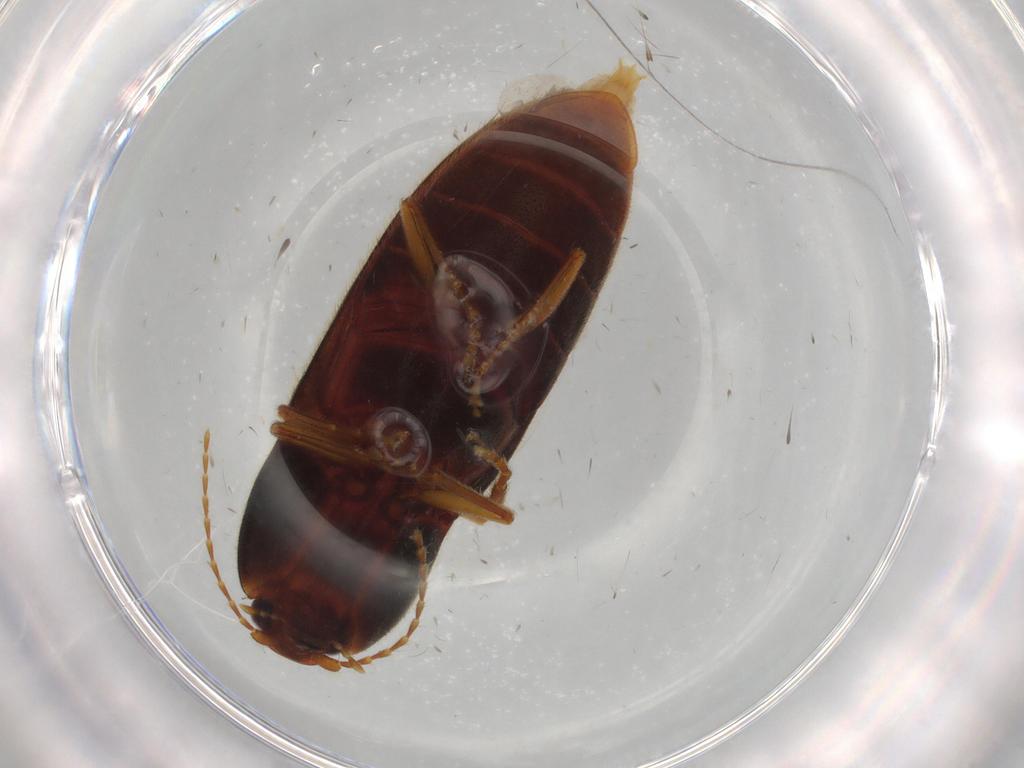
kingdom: Animalia
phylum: Arthropoda
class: Insecta
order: Coleoptera
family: Elateridae
